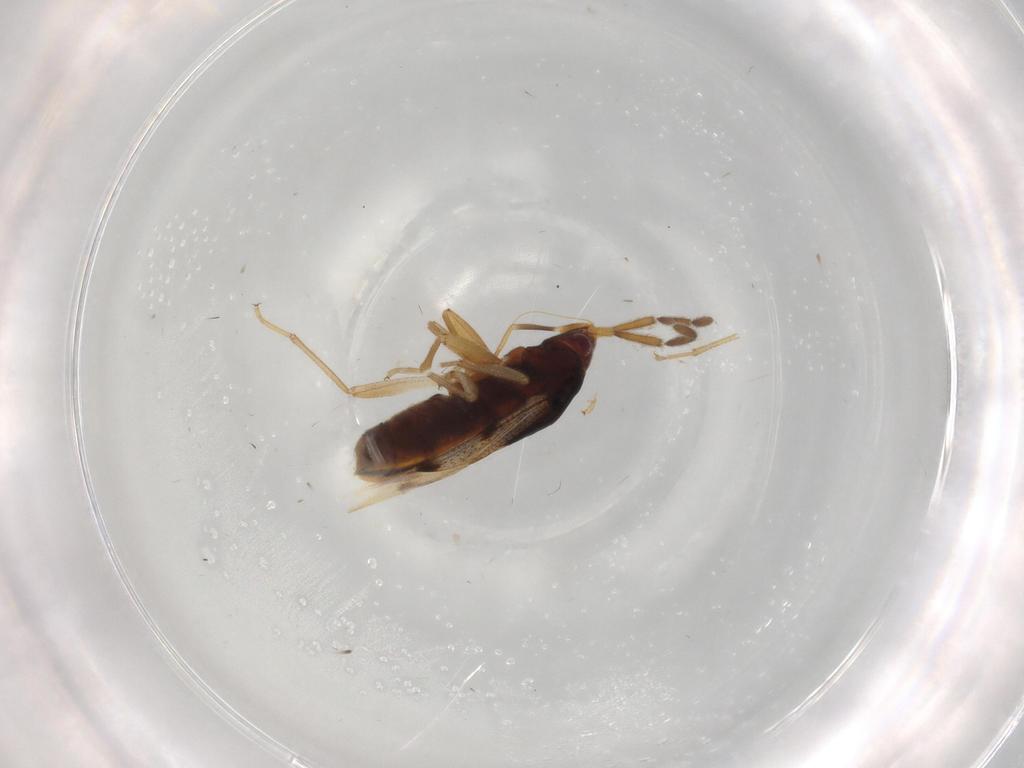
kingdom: Animalia
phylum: Arthropoda
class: Insecta
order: Hemiptera
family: Rhyparochromidae
